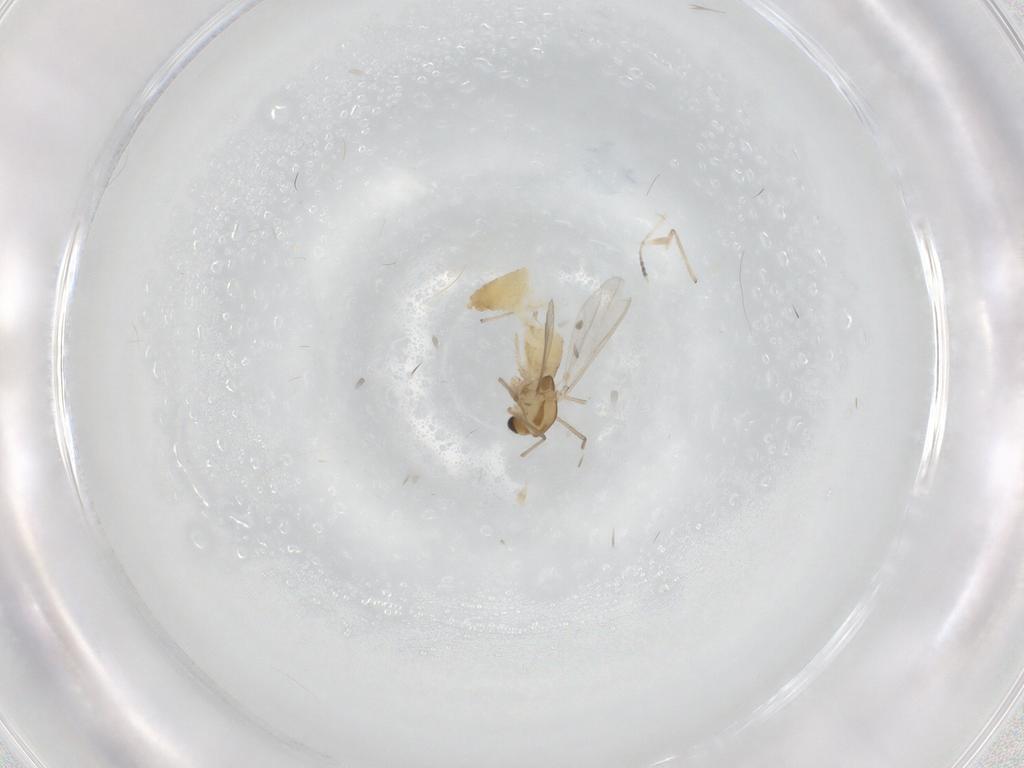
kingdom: Animalia
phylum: Arthropoda
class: Insecta
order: Diptera
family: Chironomidae
